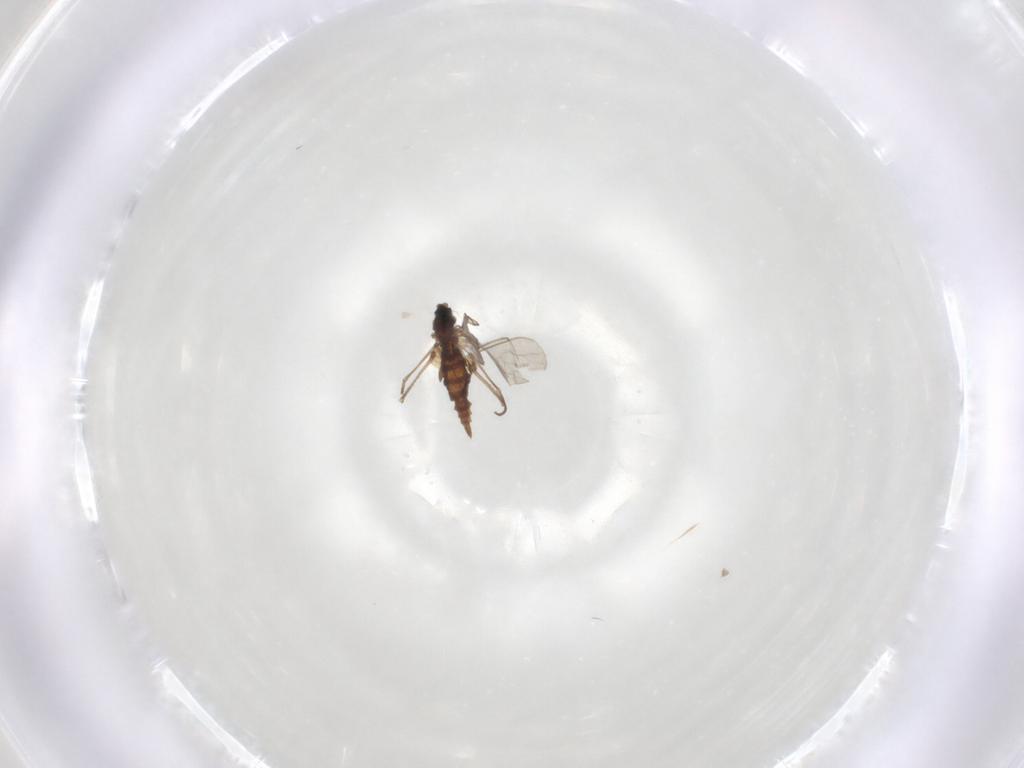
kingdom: Animalia
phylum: Arthropoda
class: Insecta
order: Diptera
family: Sciaridae
